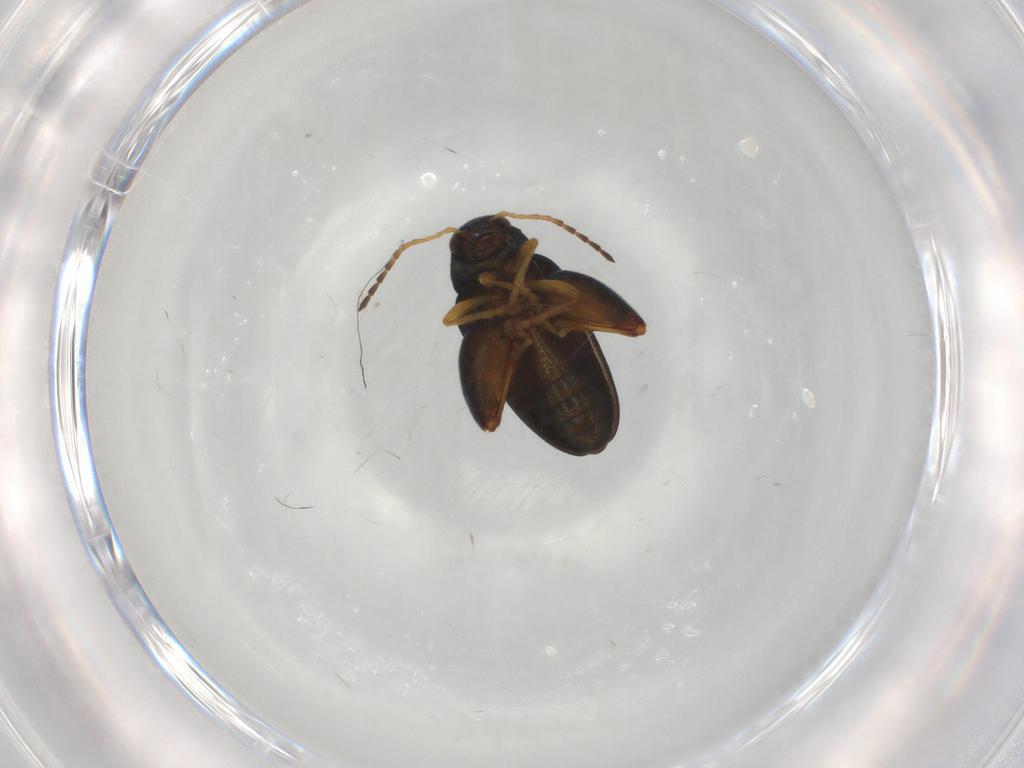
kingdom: Animalia
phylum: Arthropoda
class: Insecta
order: Coleoptera
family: Chrysomelidae
